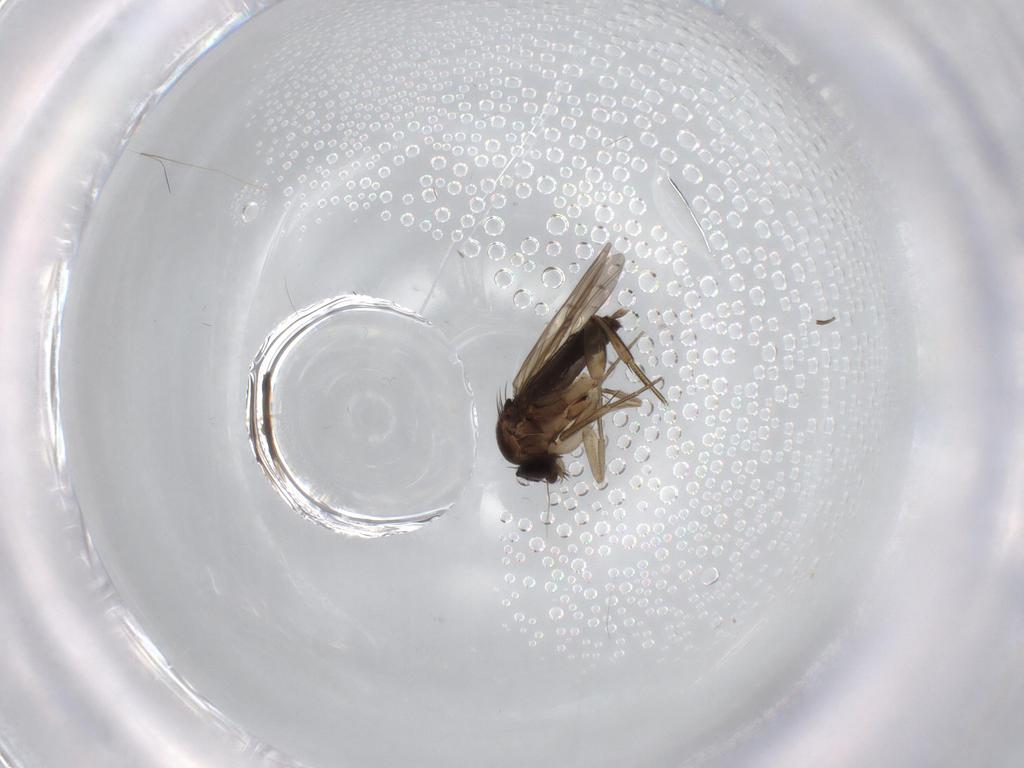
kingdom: Animalia
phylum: Arthropoda
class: Insecta
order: Diptera
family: Phoridae
